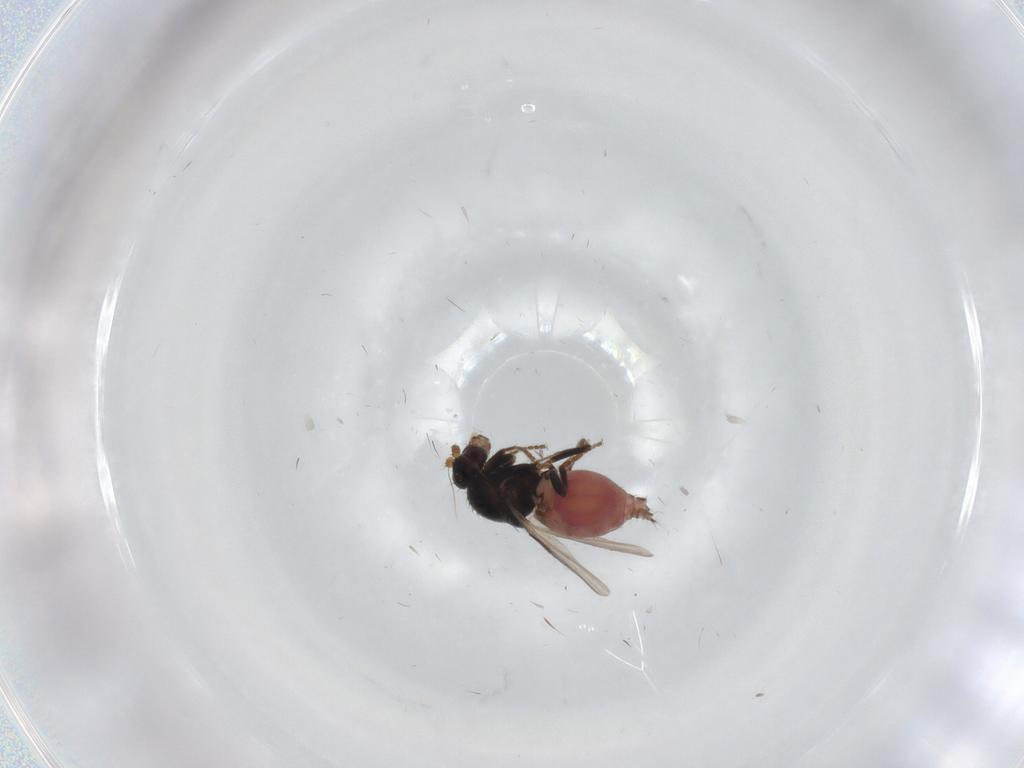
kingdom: Animalia
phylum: Arthropoda
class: Insecta
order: Diptera
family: Sphaeroceridae
